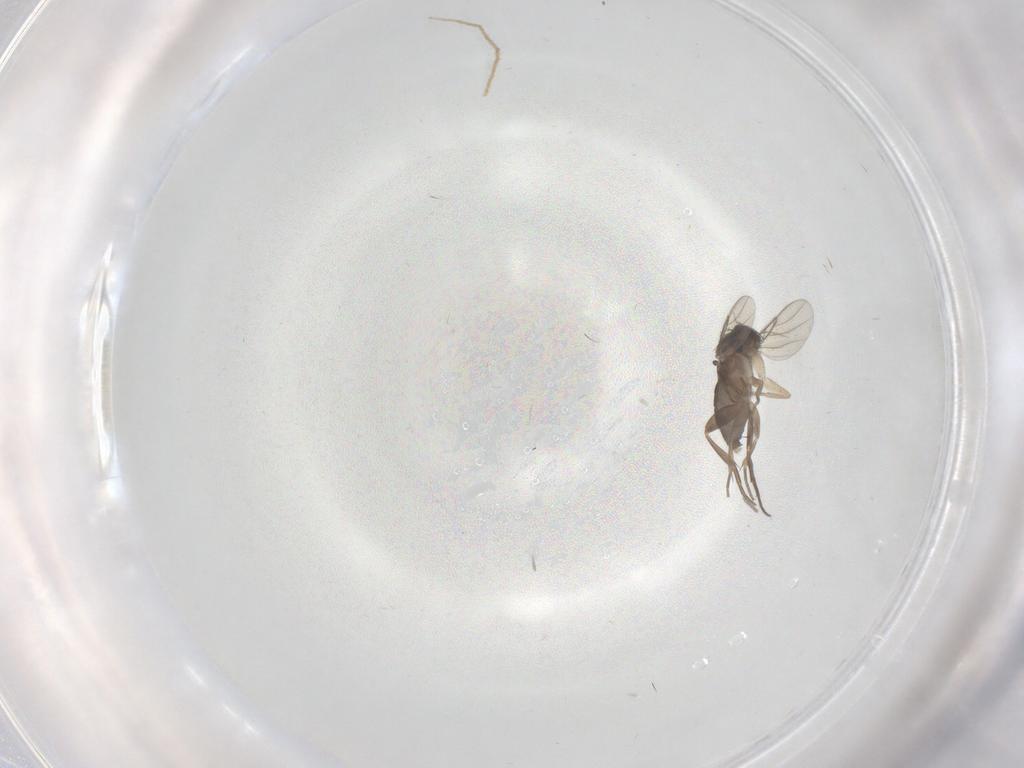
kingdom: Animalia
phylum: Arthropoda
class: Insecta
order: Diptera
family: Phoridae
